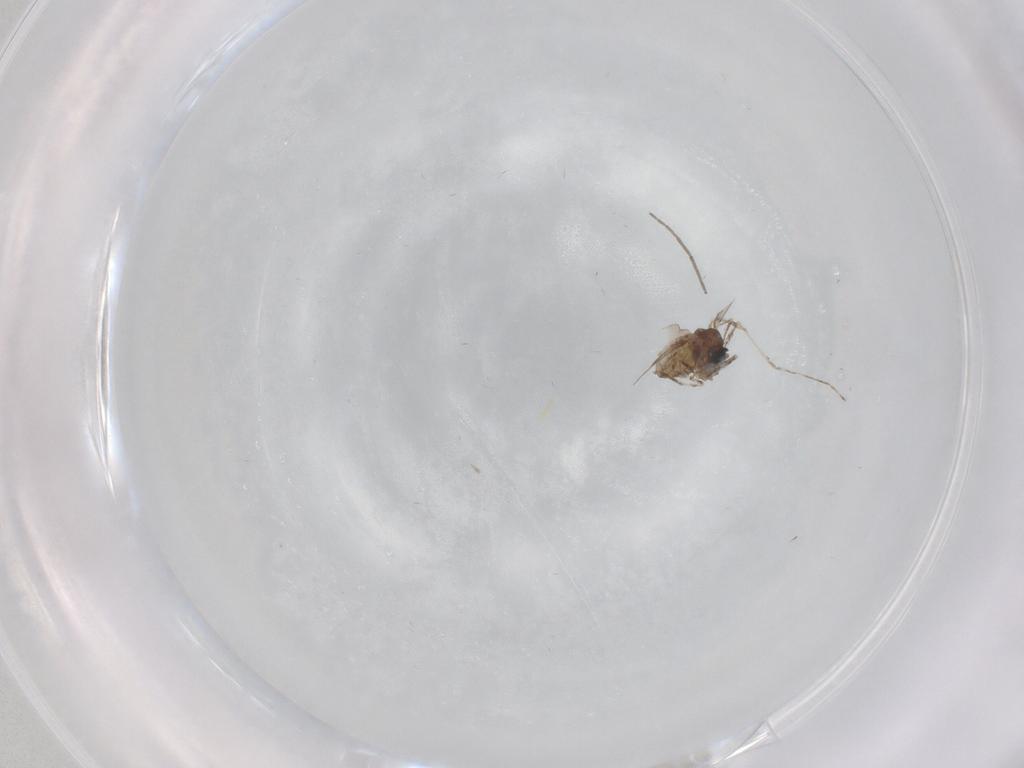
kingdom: Animalia
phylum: Arthropoda
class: Insecta
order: Diptera
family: Cecidomyiidae
